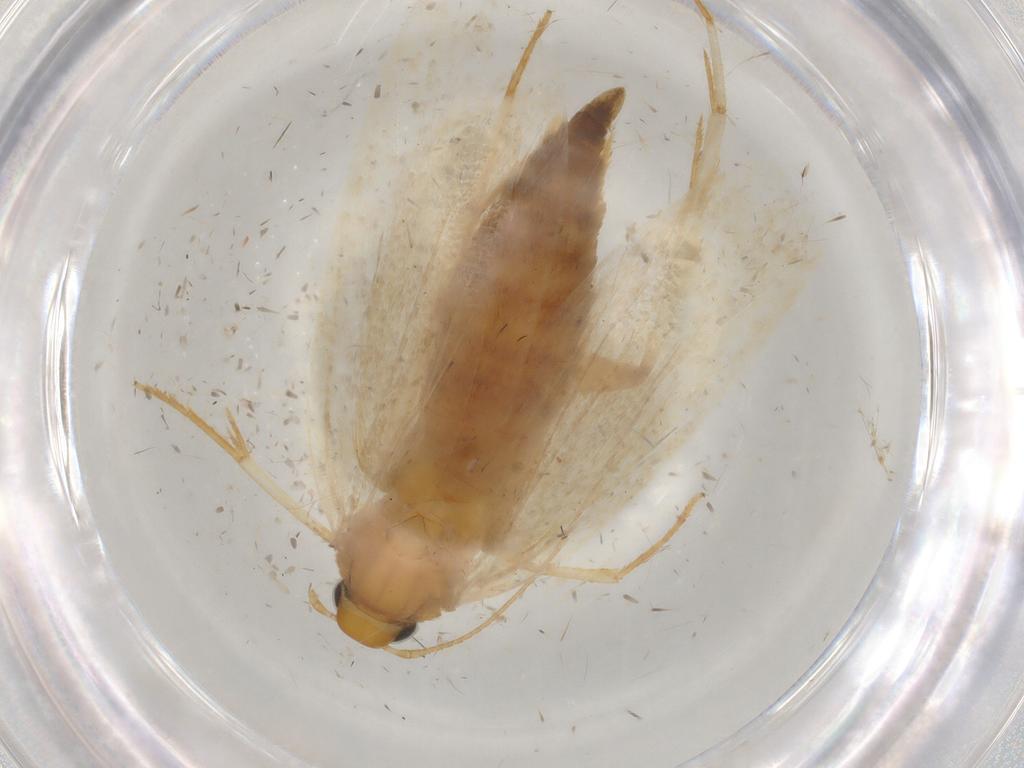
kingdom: Animalia
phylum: Arthropoda
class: Insecta
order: Lepidoptera
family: Gelechiidae
